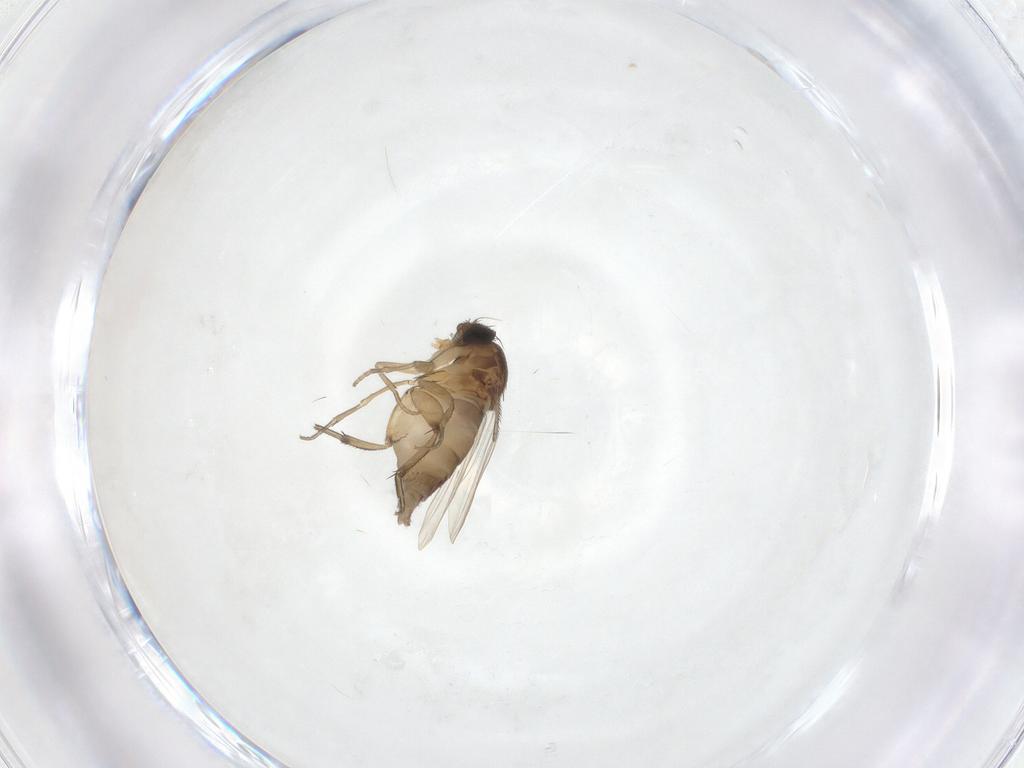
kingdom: Animalia
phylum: Arthropoda
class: Insecta
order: Diptera
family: Phoridae
